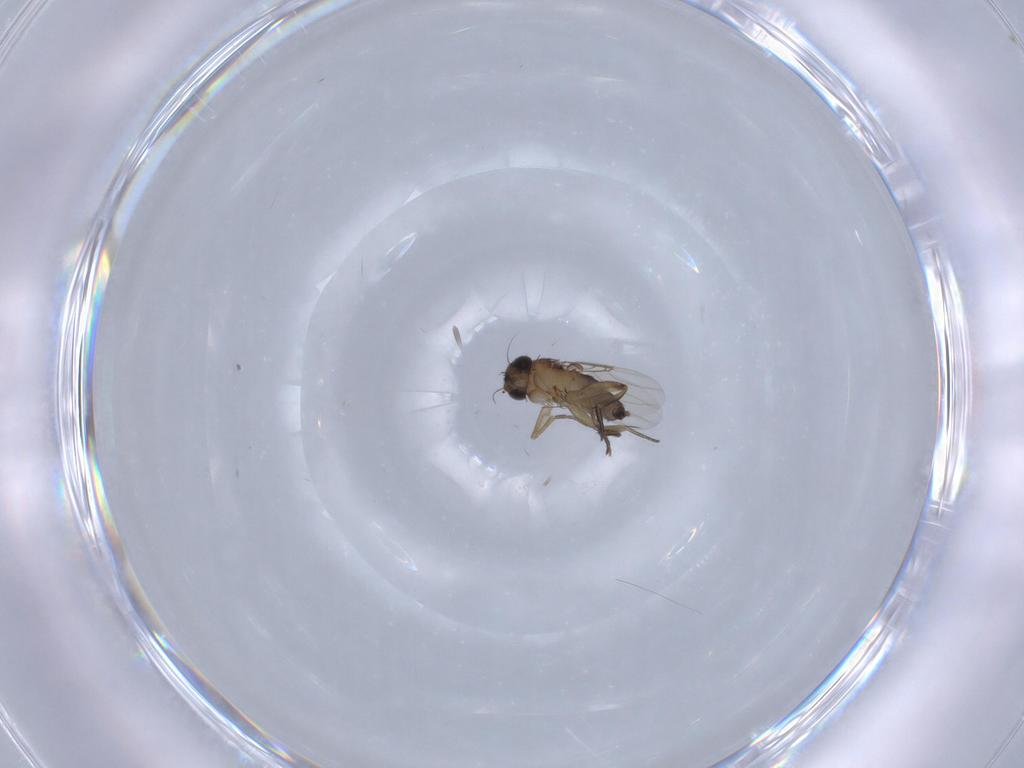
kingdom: Animalia
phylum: Arthropoda
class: Insecta
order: Diptera
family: Phoridae
